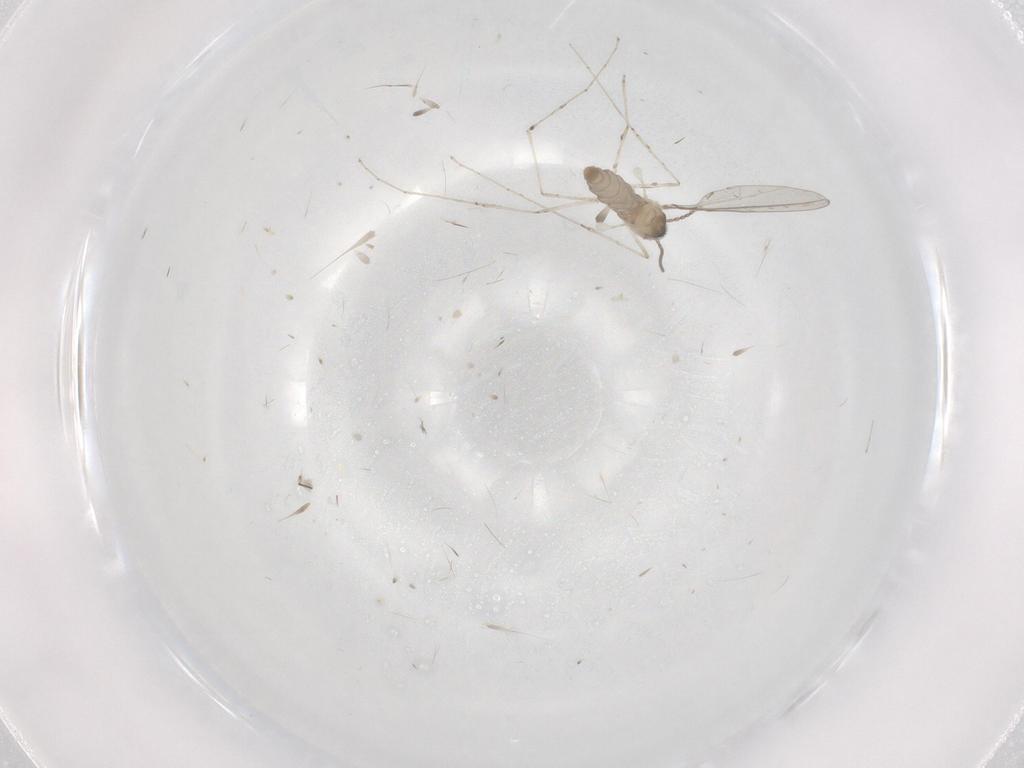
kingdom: Animalia
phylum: Arthropoda
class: Insecta
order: Diptera
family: Cecidomyiidae
